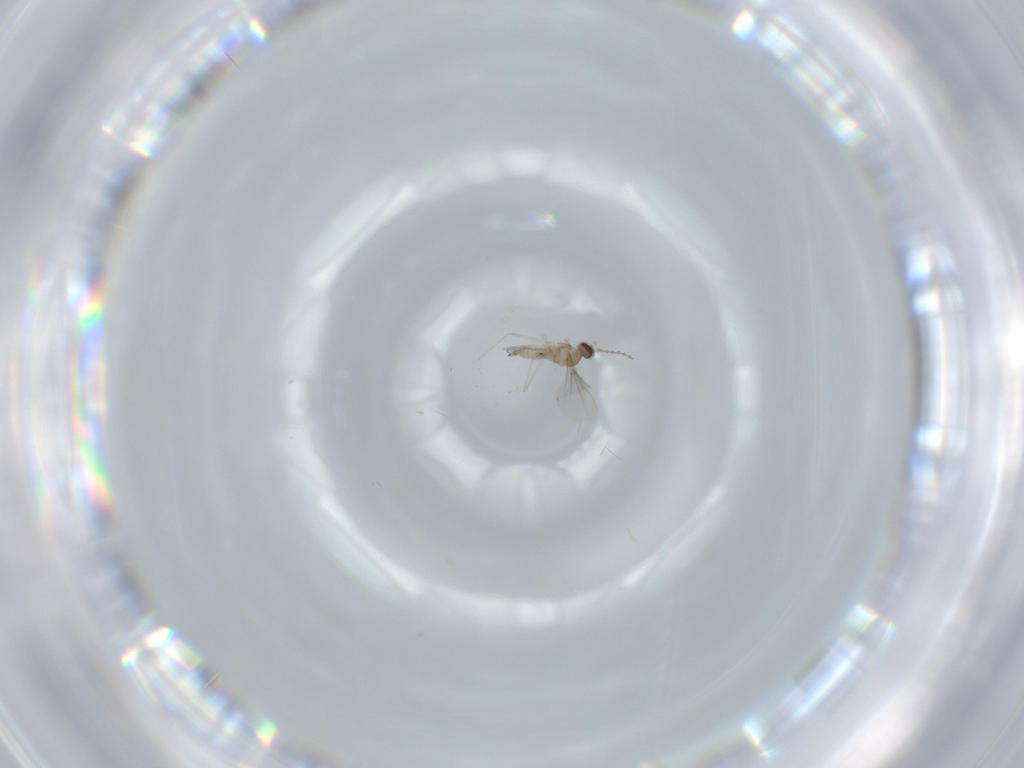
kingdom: Animalia
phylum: Arthropoda
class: Insecta
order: Diptera
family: Cecidomyiidae
